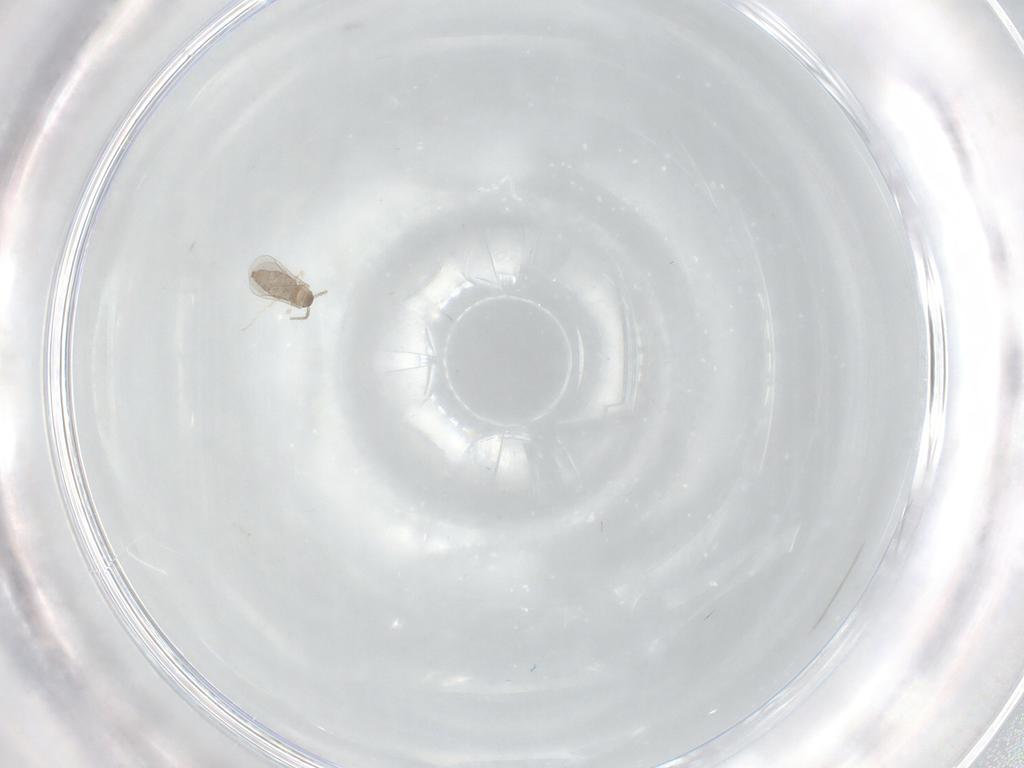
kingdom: Animalia
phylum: Arthropoda
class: Insecta
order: Diptera
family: Cecidomyiidae
